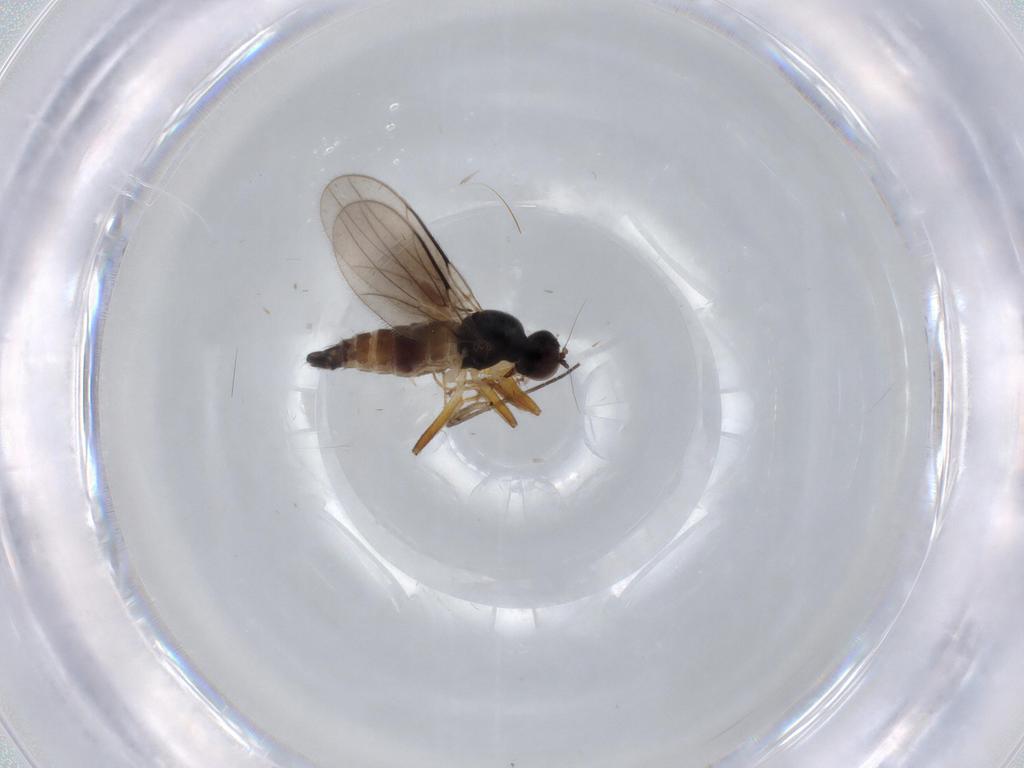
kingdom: Animalia
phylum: Arthropoda
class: Insecta
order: Diptera
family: Hybotidae
